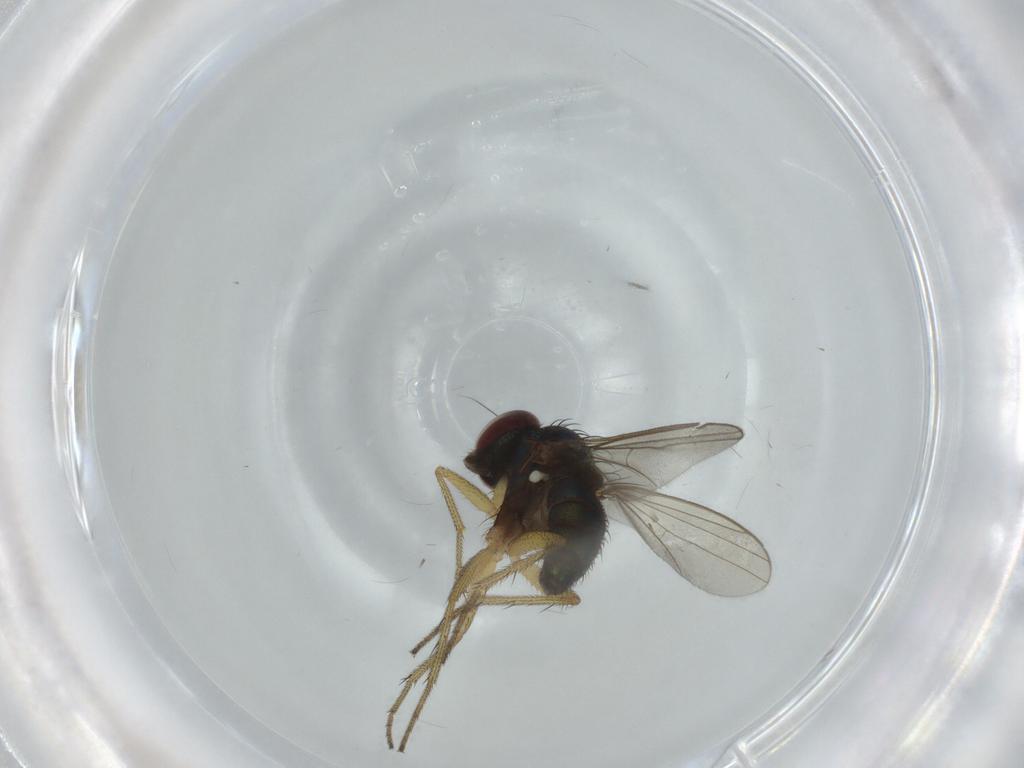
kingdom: Animalia
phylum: Arthropoda
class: Insecta
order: Diptera
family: Dolichopodidae
